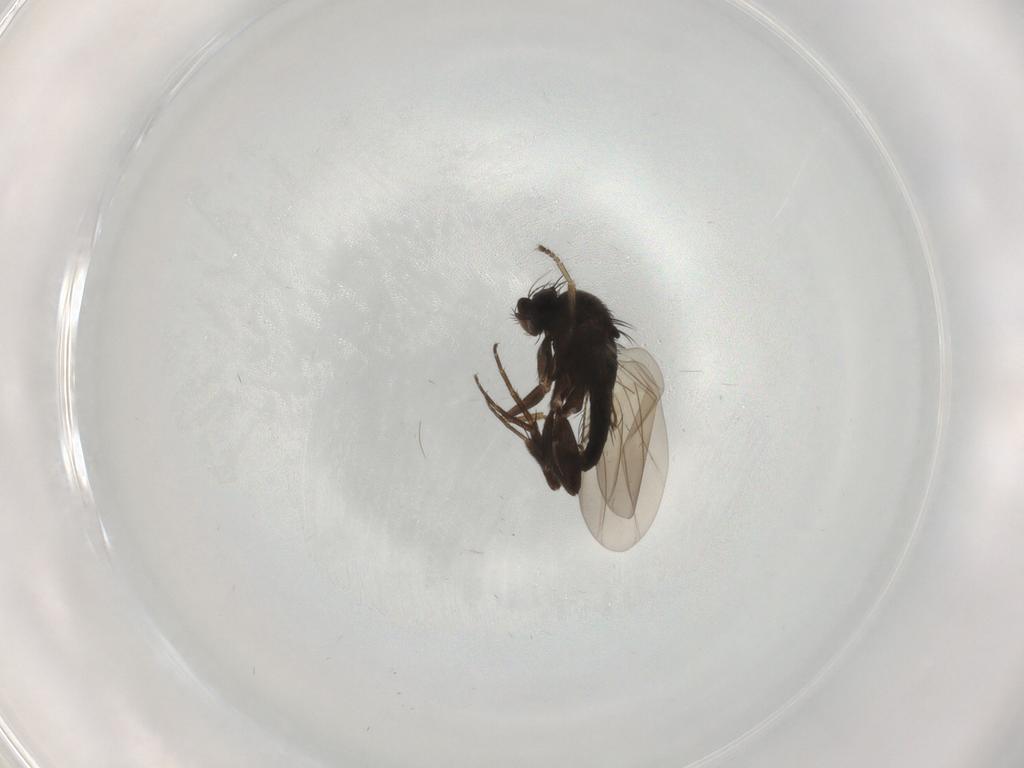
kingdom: Animalia
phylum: Arthropoda
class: Insecta
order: Diptera
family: Phoridae
